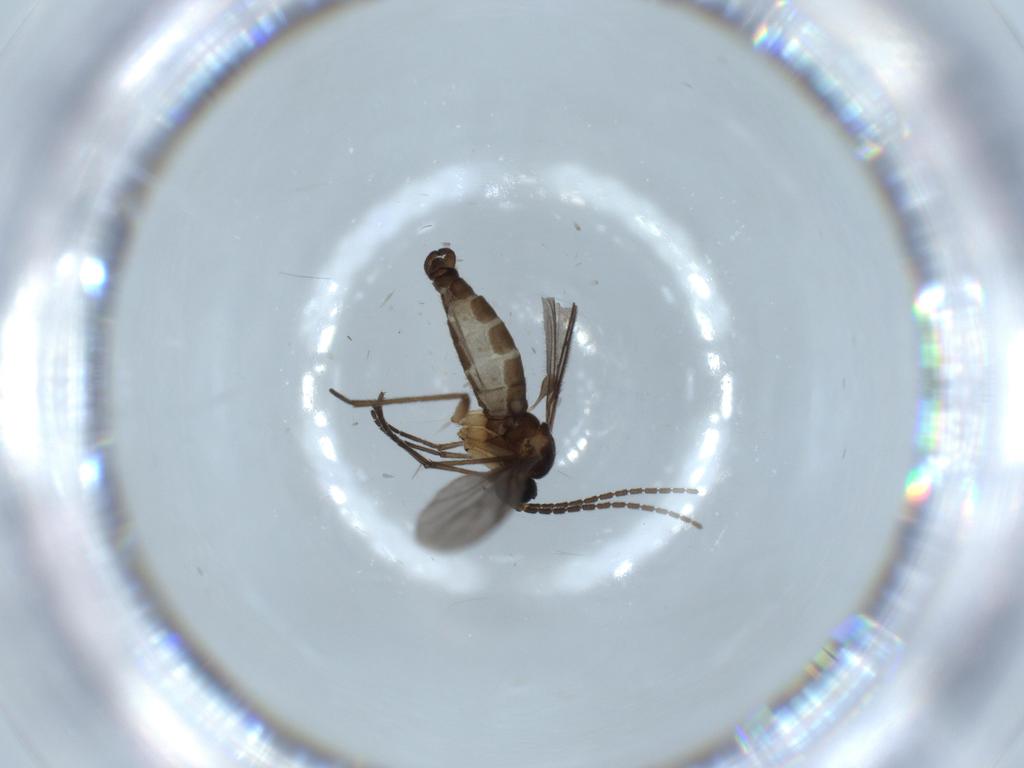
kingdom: Animalia
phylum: Arthropoda
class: Insecta
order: Diptera
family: Sciaridae
